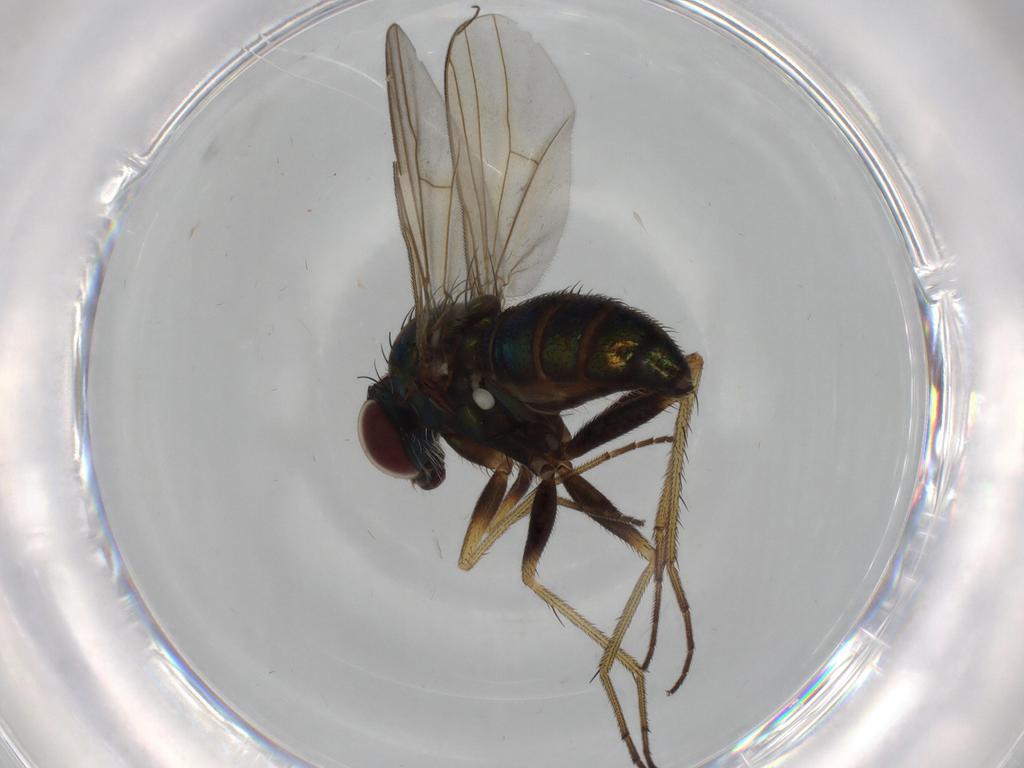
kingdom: Animalia
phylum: Arthropoda
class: Insecta
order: Diptera
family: Dolichopodidae
